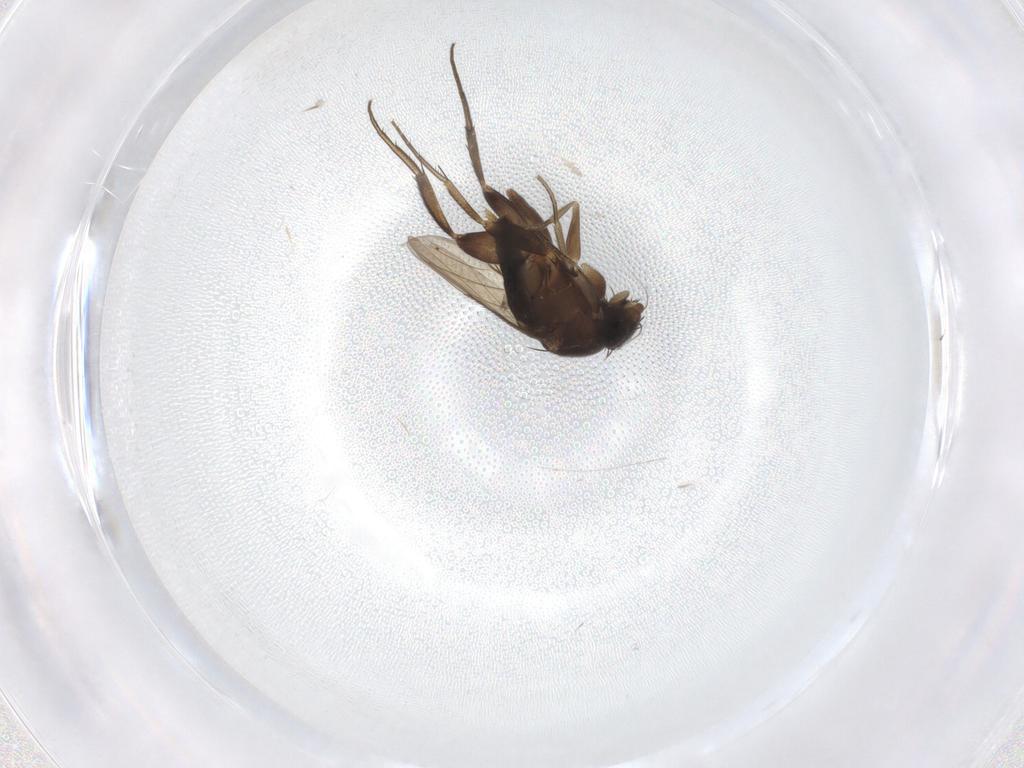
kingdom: Animalia
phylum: Arthropoda
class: Insecta
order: Diptera
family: Phoridae
